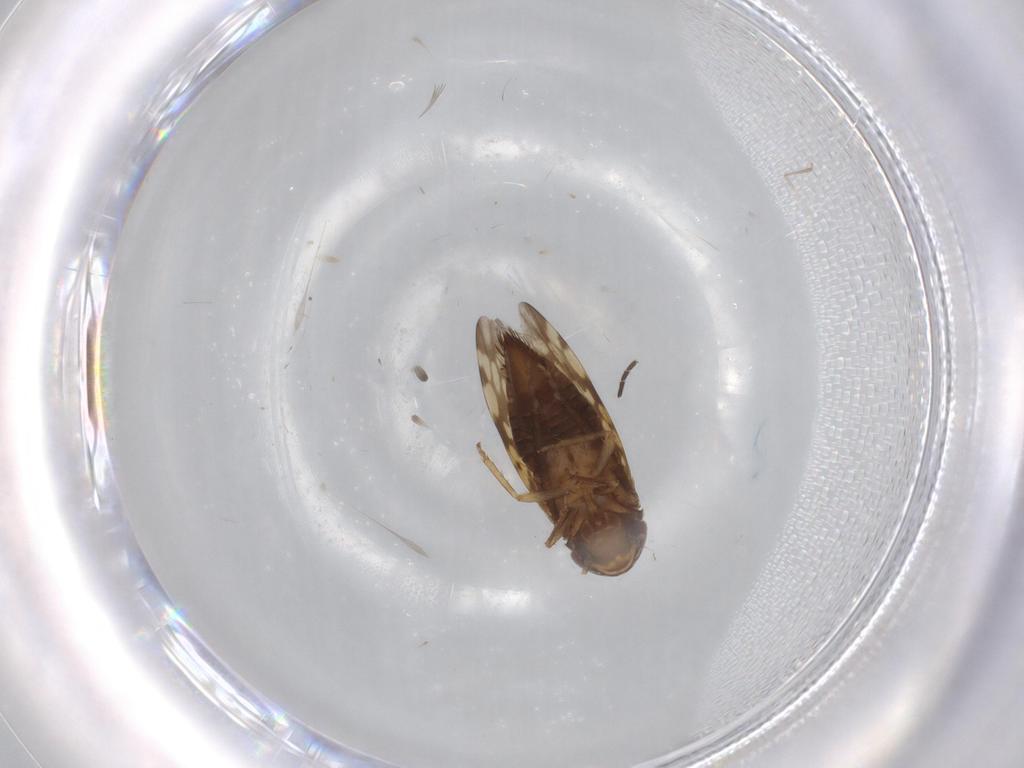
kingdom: Animalia
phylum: Arthropoda
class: Insecta
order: Hemiptera
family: Cicadellidae
